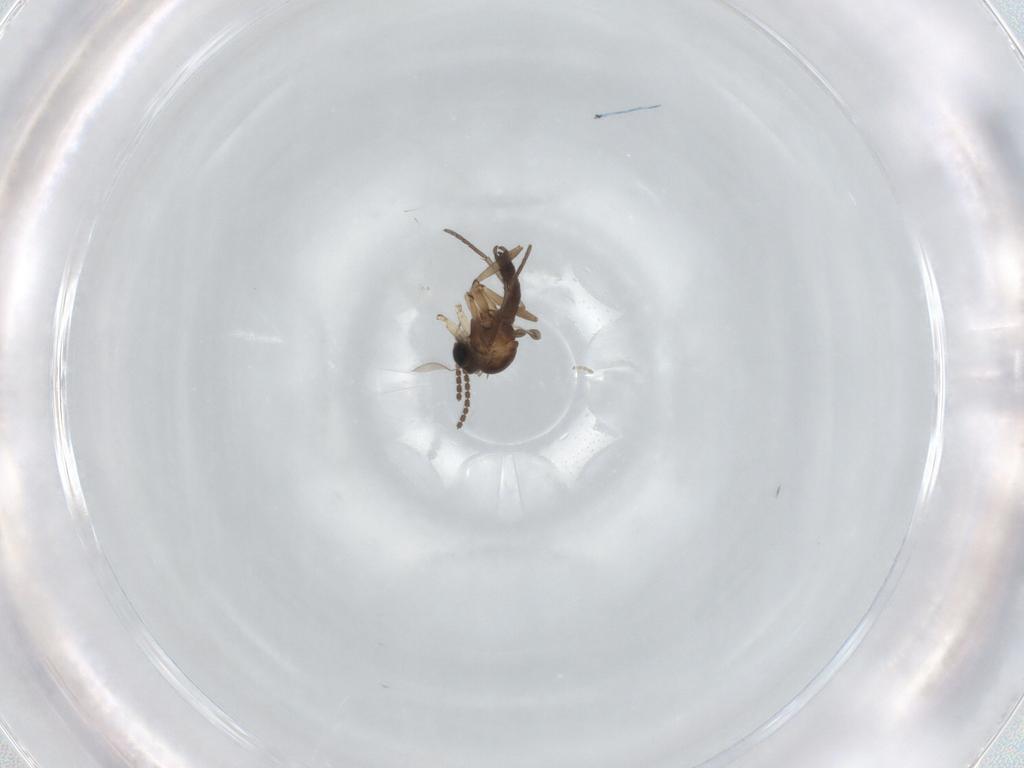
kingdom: Animalia
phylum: Arthropoda
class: Insecta
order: Diptera
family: Sciaridae
